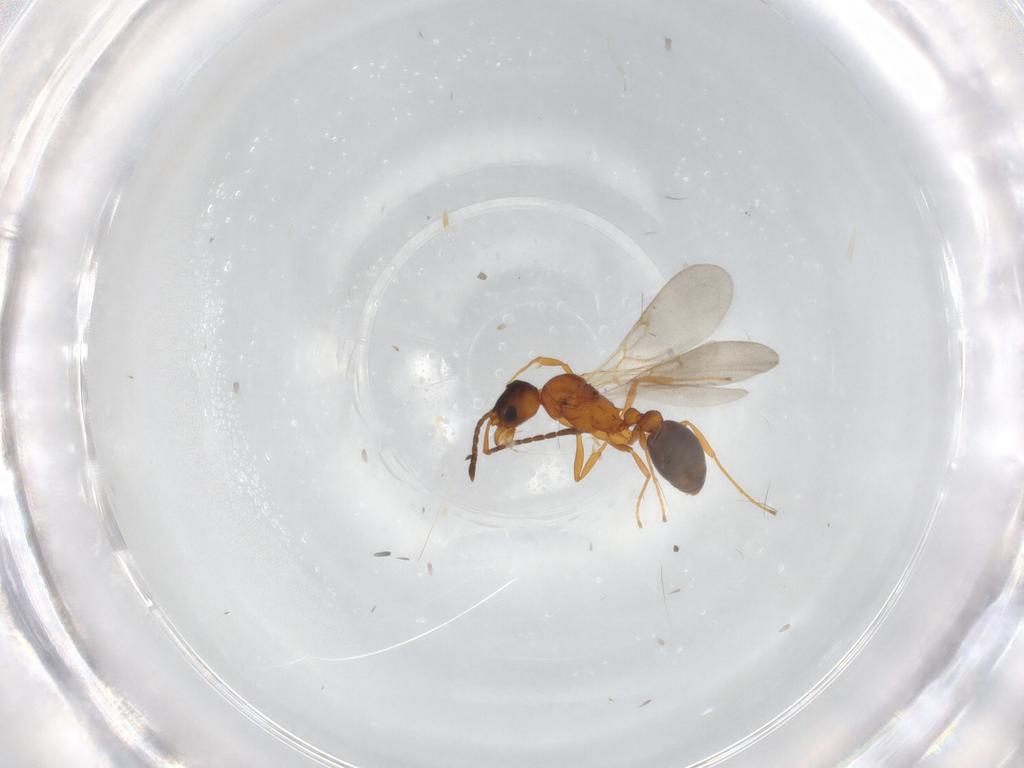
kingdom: Animalia
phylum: Arthropoda
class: Insecta
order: Hymenoptera
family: Formicidae
